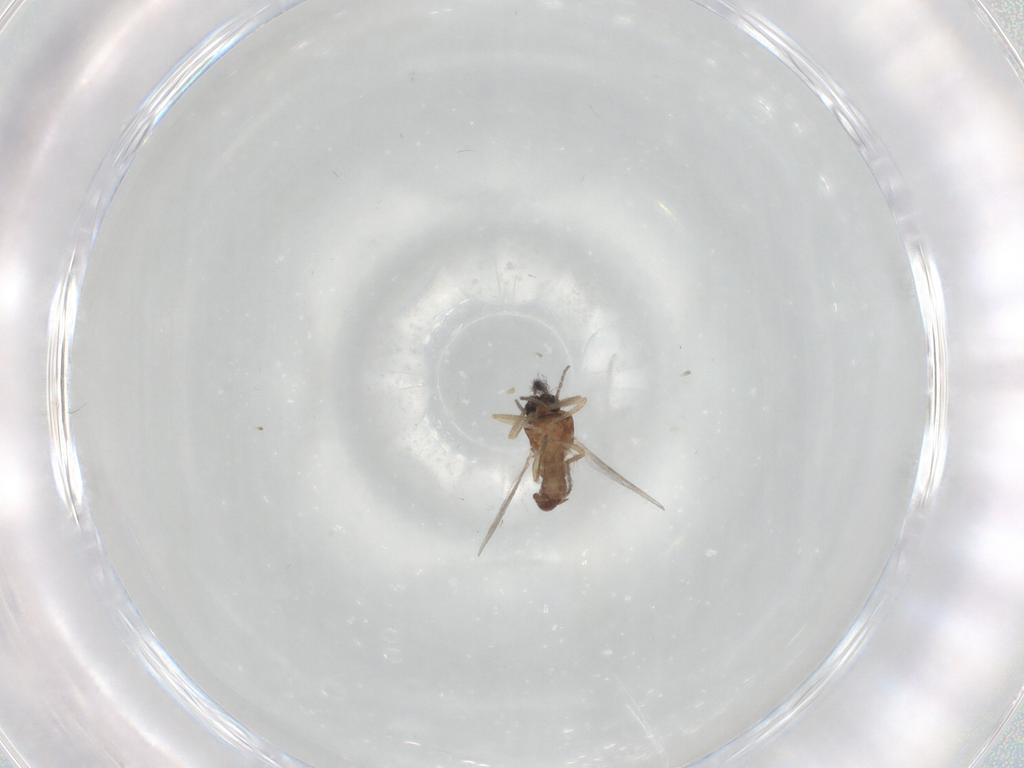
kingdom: Animalia
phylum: Arthropoda
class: Insecta
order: Diptera
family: Ceratopogonidae
